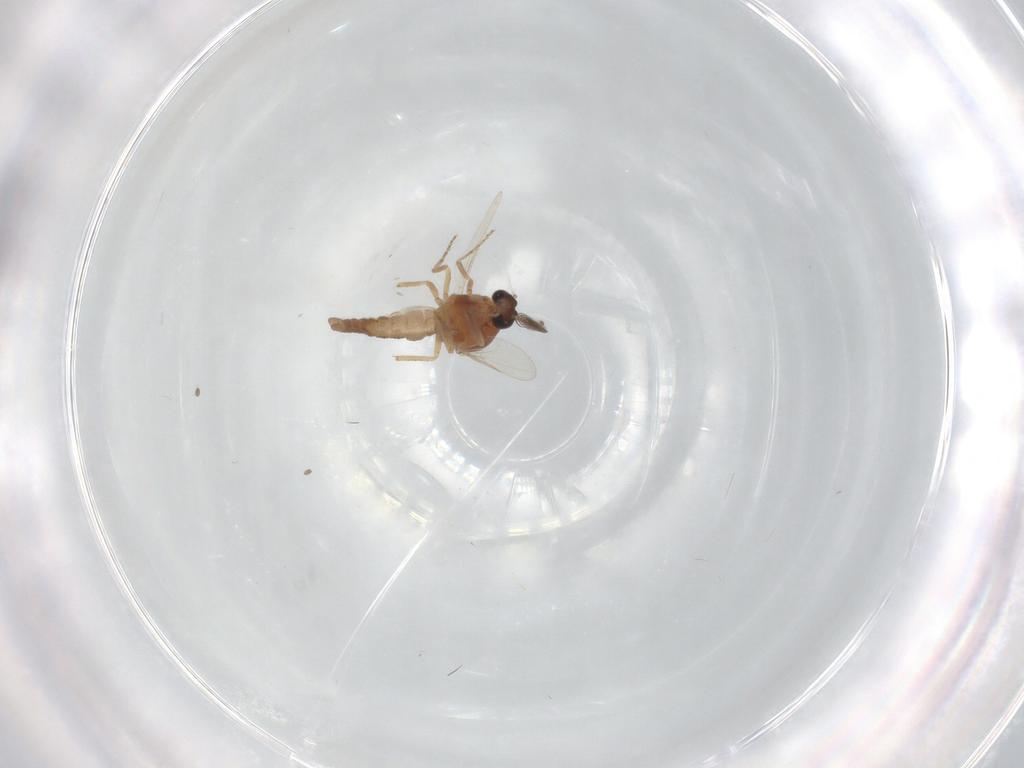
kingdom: Animalia
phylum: Arthropoda
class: Insecta
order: Diptera
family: Ceratopogonidae
